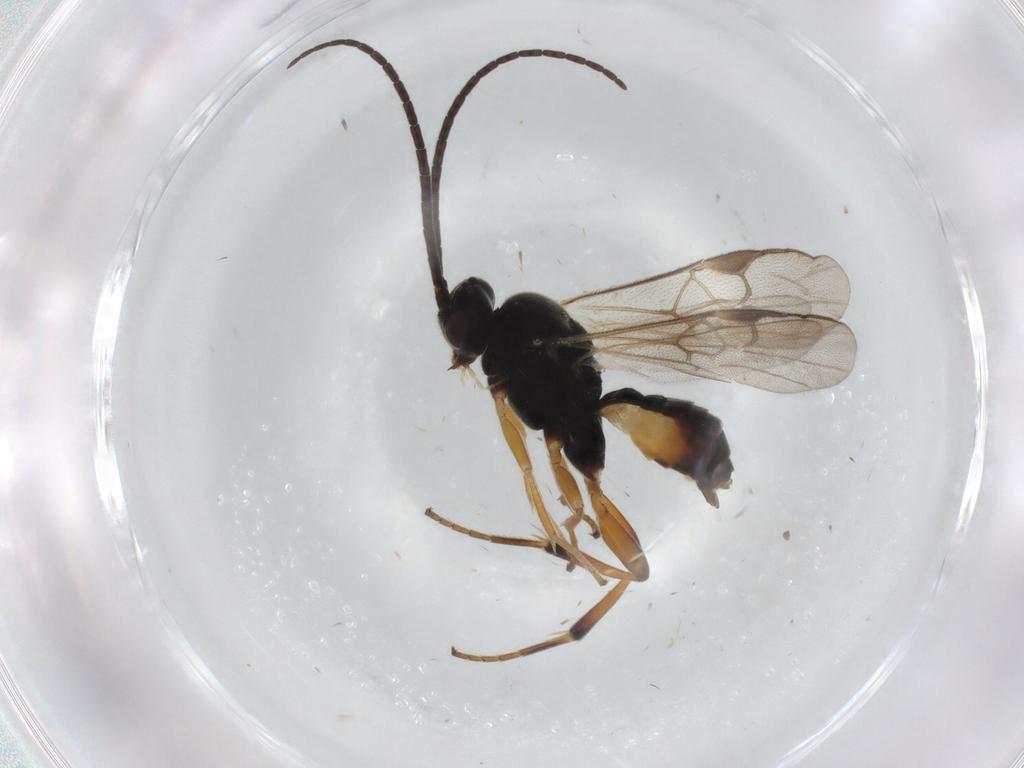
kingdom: Animalia
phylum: Arthropoda
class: Insecta
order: Hymenoptera
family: Braconidae
